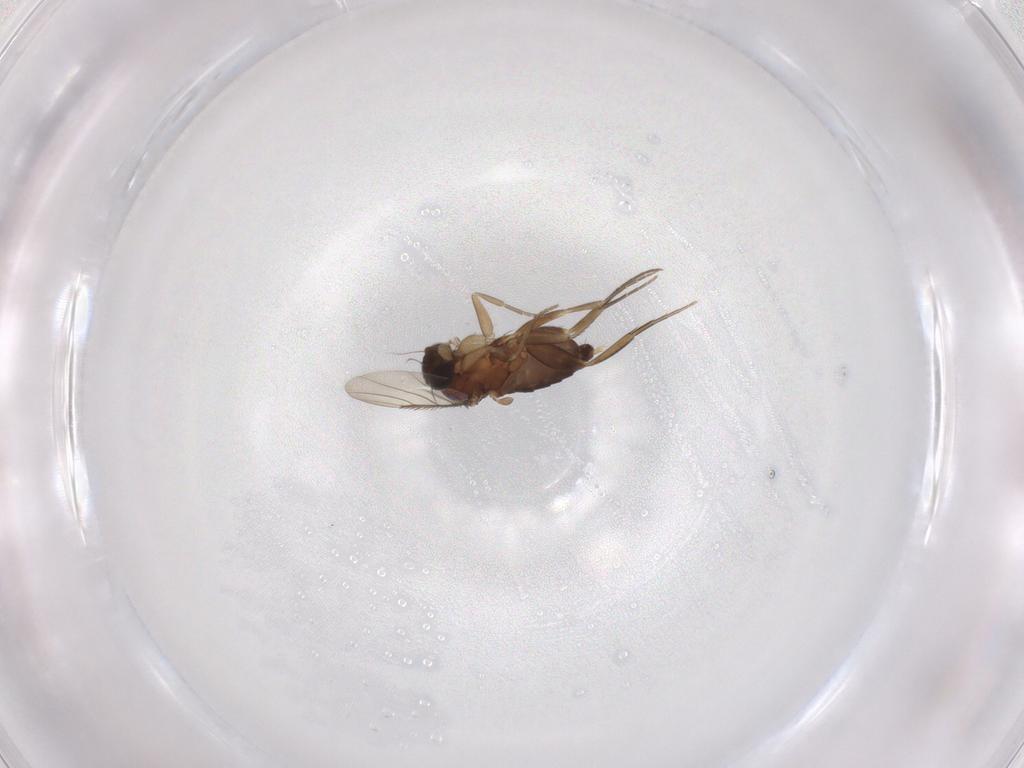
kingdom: Animalia
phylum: Arthropoda
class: Insecta
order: Diptera
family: Phoridae
